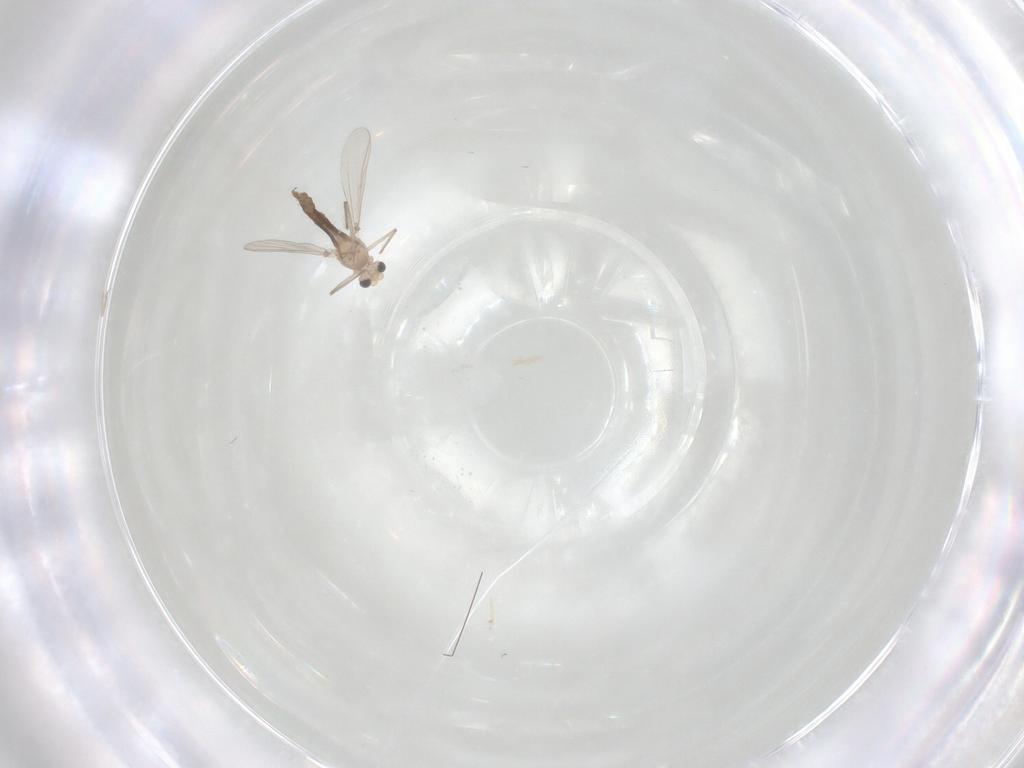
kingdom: Animalia
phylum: Arthropoda
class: Insecta
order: Diptera
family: Chironomidae
